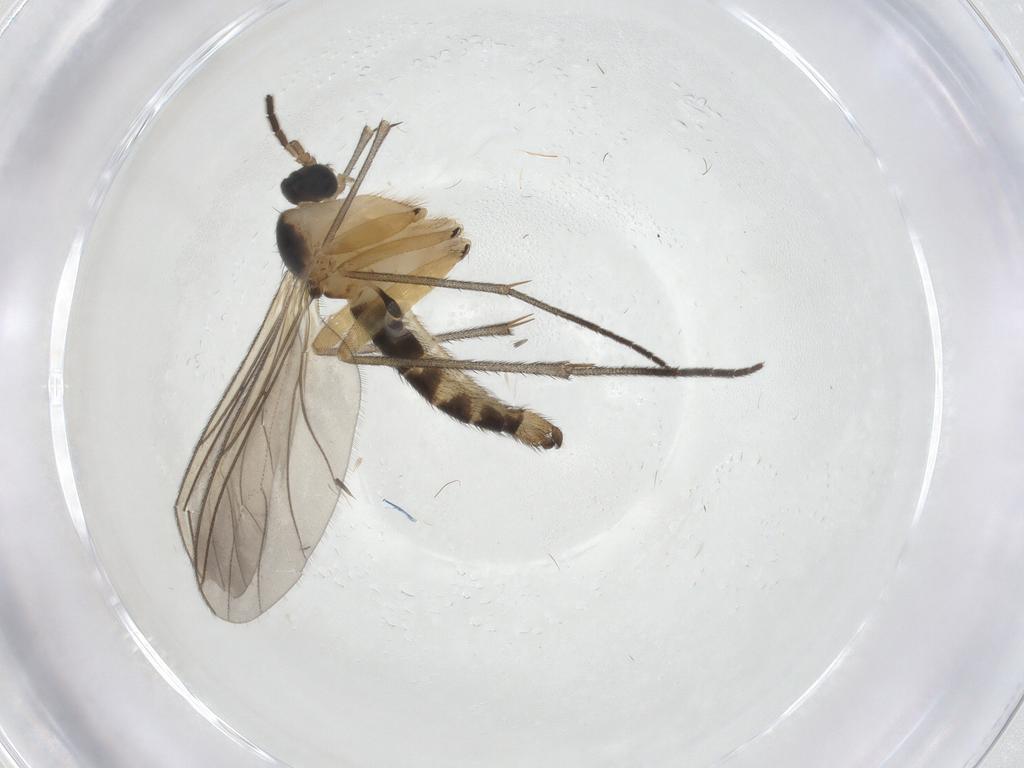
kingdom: Animalia
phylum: Arthropoda
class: Insecta
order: Diptera
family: Sciaridae
